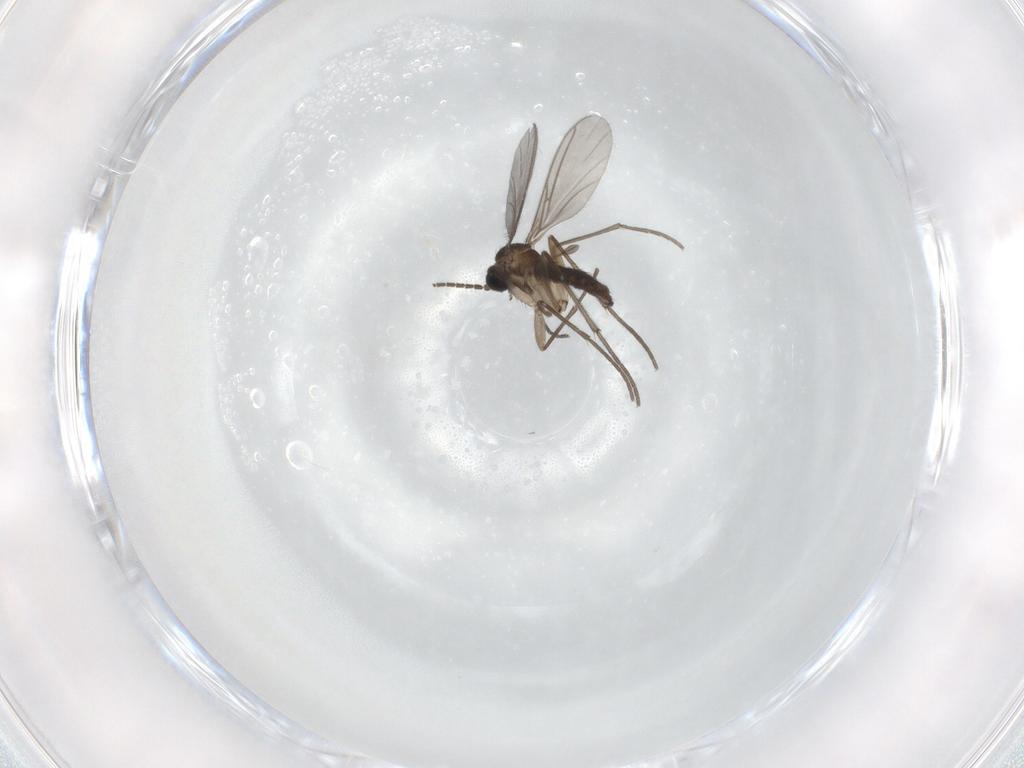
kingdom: Animalia
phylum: Arthropoda
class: Insecta
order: Diptera
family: Sciaridae
